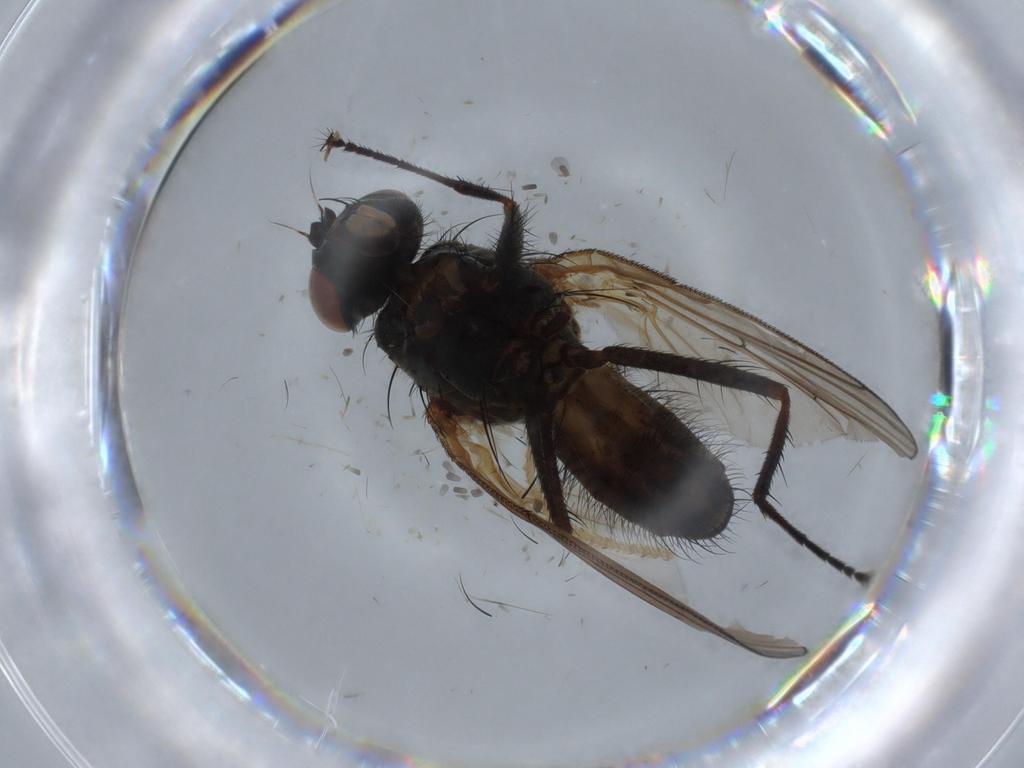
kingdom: Animalia
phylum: Arthropoda
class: Insecta
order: Diptera
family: Anthomyiidae
